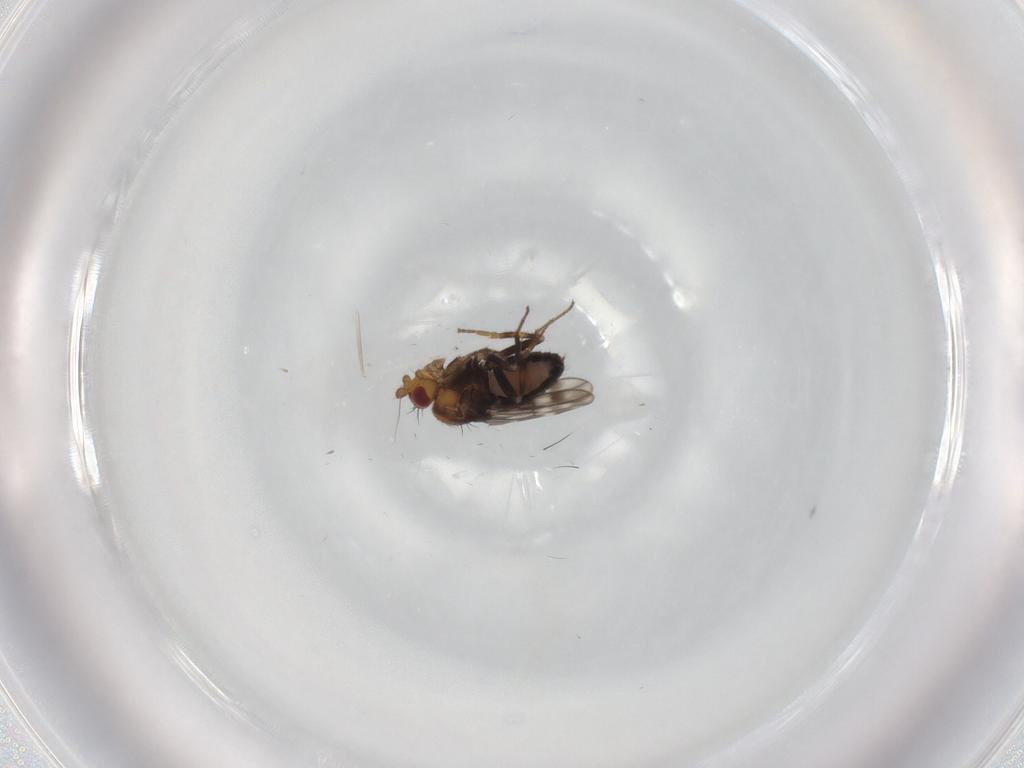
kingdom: Animalia
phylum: Arthropoda
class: Insecta
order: Diptera
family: Sphaeroceridae
